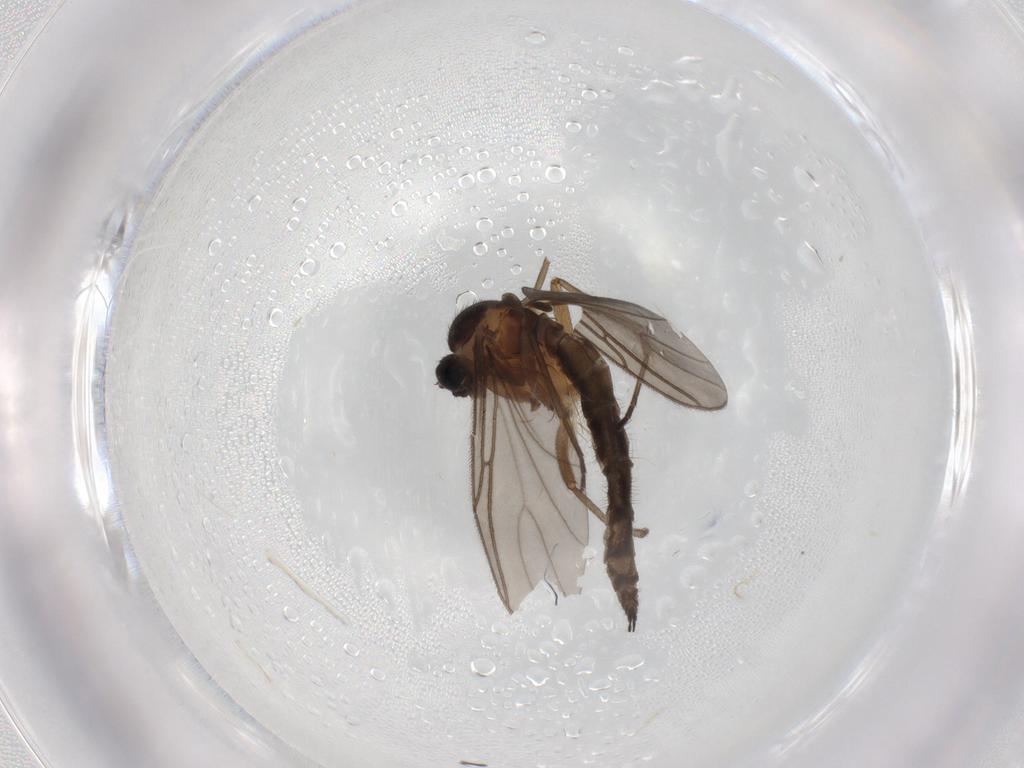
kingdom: Animalia
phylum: Arthropoda
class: Insecta
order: Diptera
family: Sciaridae
